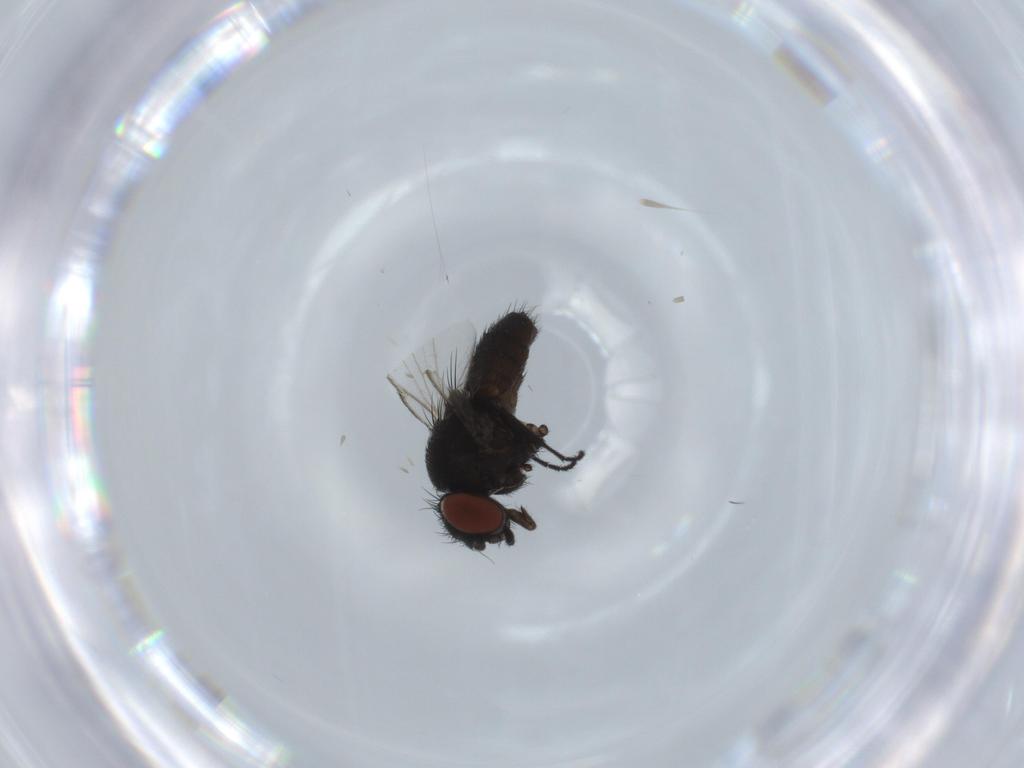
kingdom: Animalia
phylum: Arthropoda
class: Insecta
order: Diptera
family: Milichiidae
